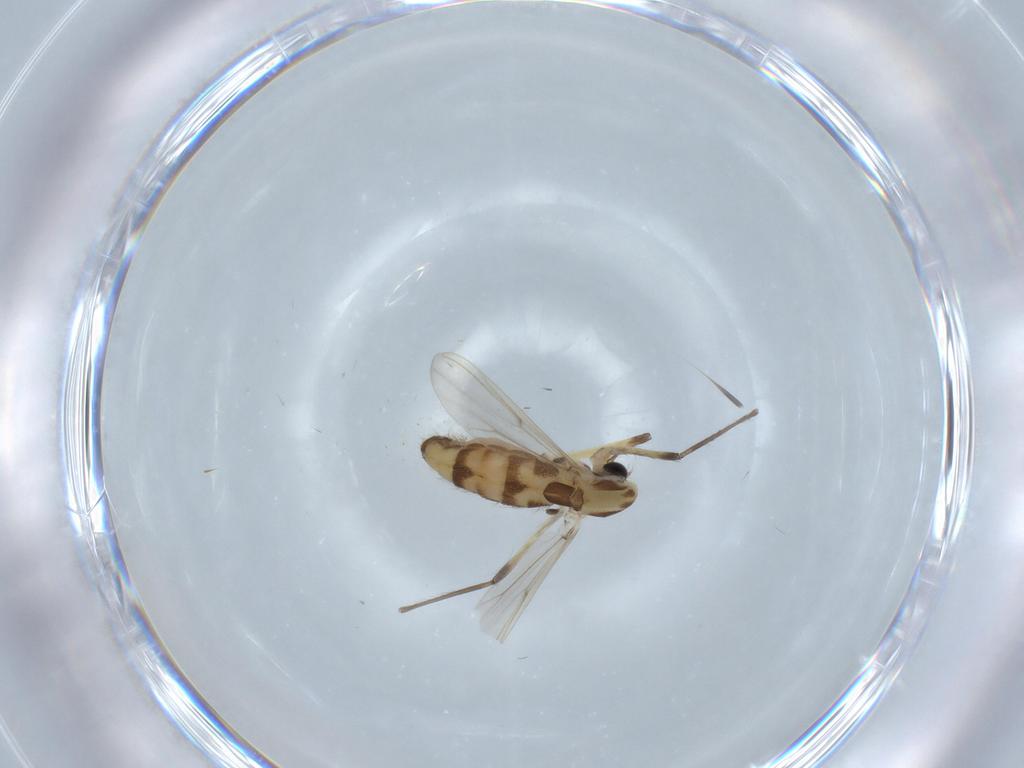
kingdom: Animalia
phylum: Arthropoda
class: Insecta
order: Diptera
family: Chironomidae
